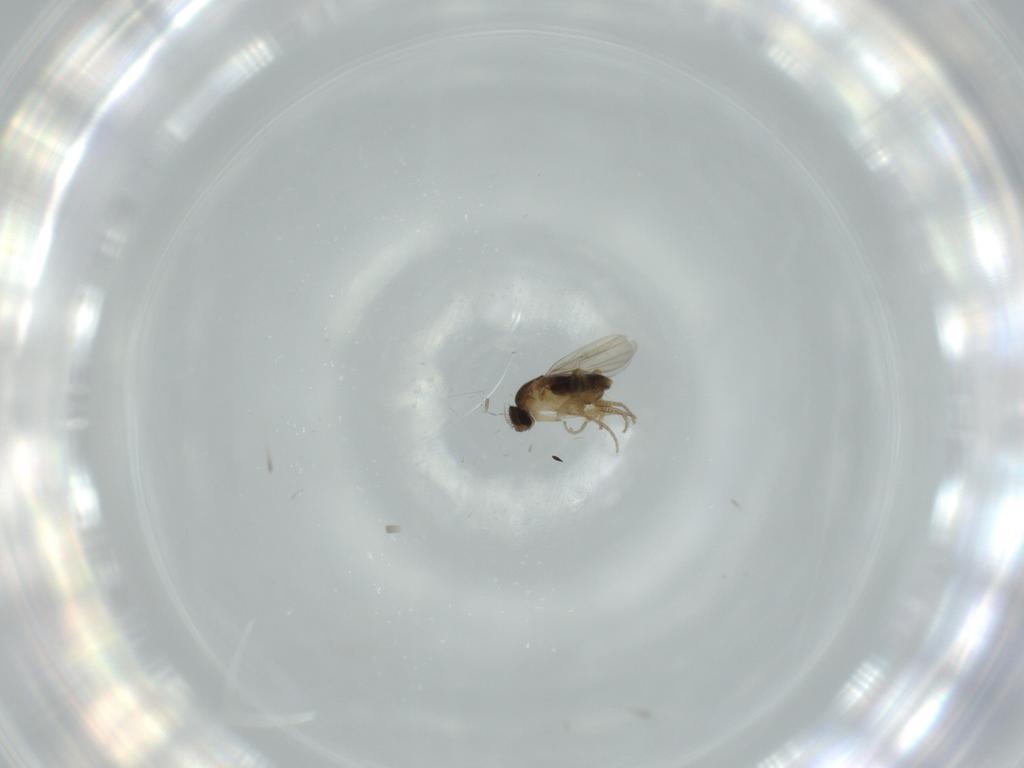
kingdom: Animalia
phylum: Arthropoda
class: Insecta
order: Diptera
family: Phoridae
